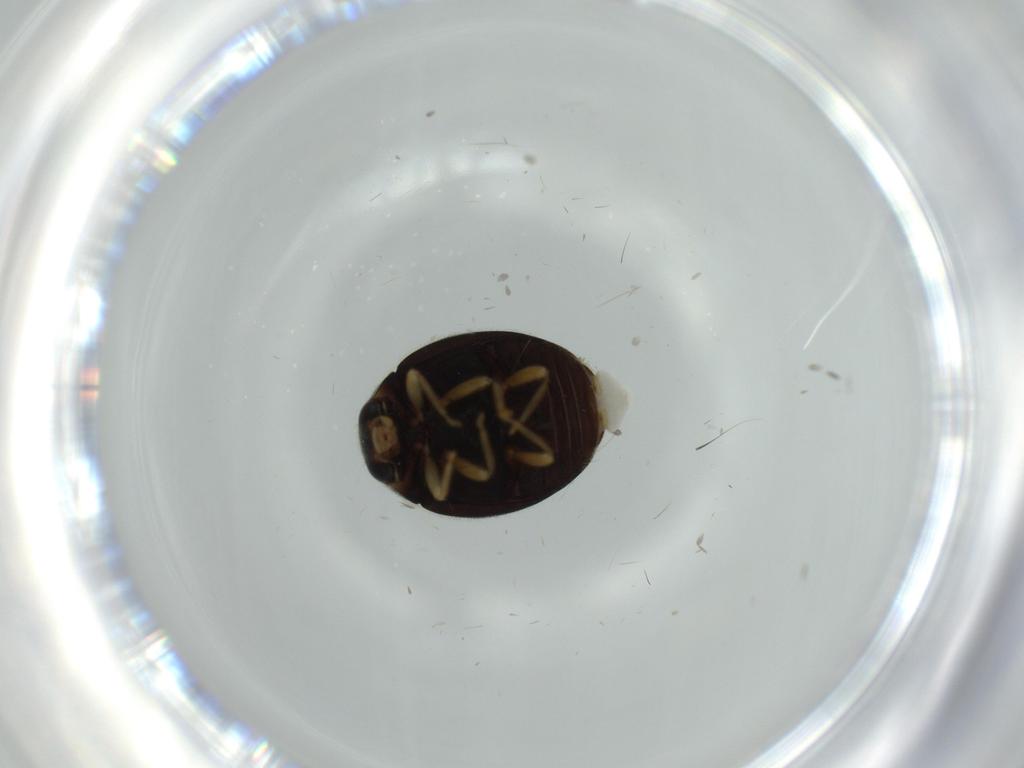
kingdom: Animalia
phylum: Arthropoda
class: Insecta
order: Coleoptera
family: Coccinellidae
